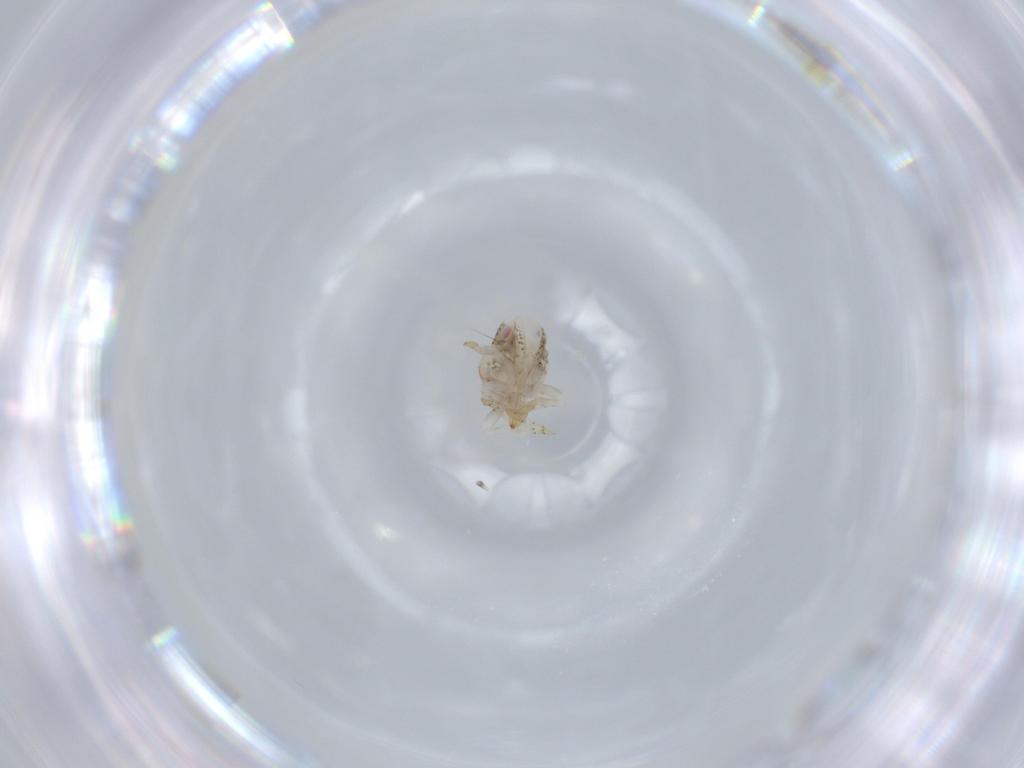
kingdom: Animalia
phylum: Arthropoda
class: Insecta
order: Hemiptera
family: Acanaloniidae
